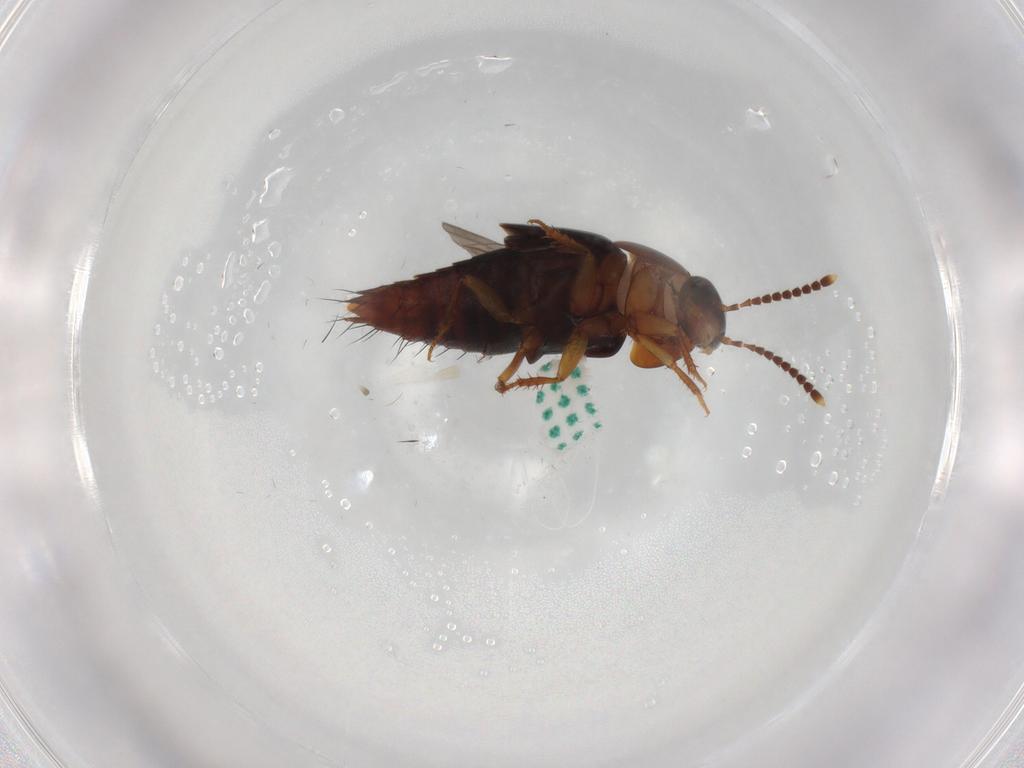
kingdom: Animalia
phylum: Arthropoda
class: Insecta
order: Coleoptera
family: Staphylinidae
